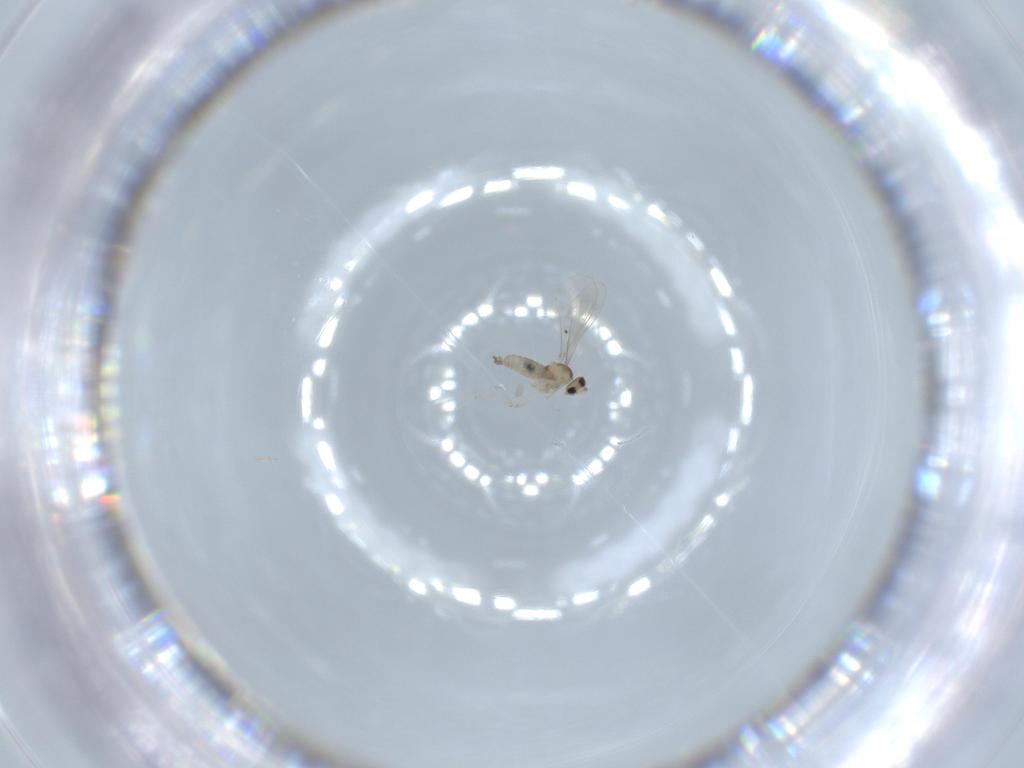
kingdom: Animalia
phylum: Arthropoda
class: Insecta
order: Diptera
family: Cecidomyiidae
